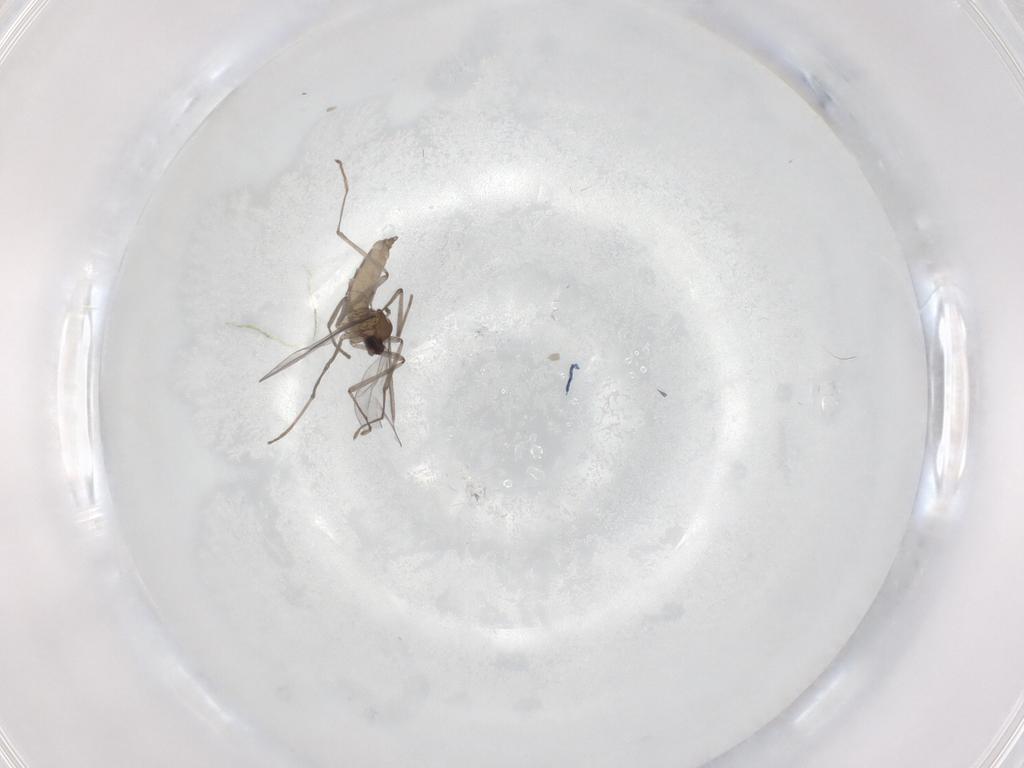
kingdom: Animalia
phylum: Arthropoda
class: Insecta
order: Diptera
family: Cecidomyiidae
